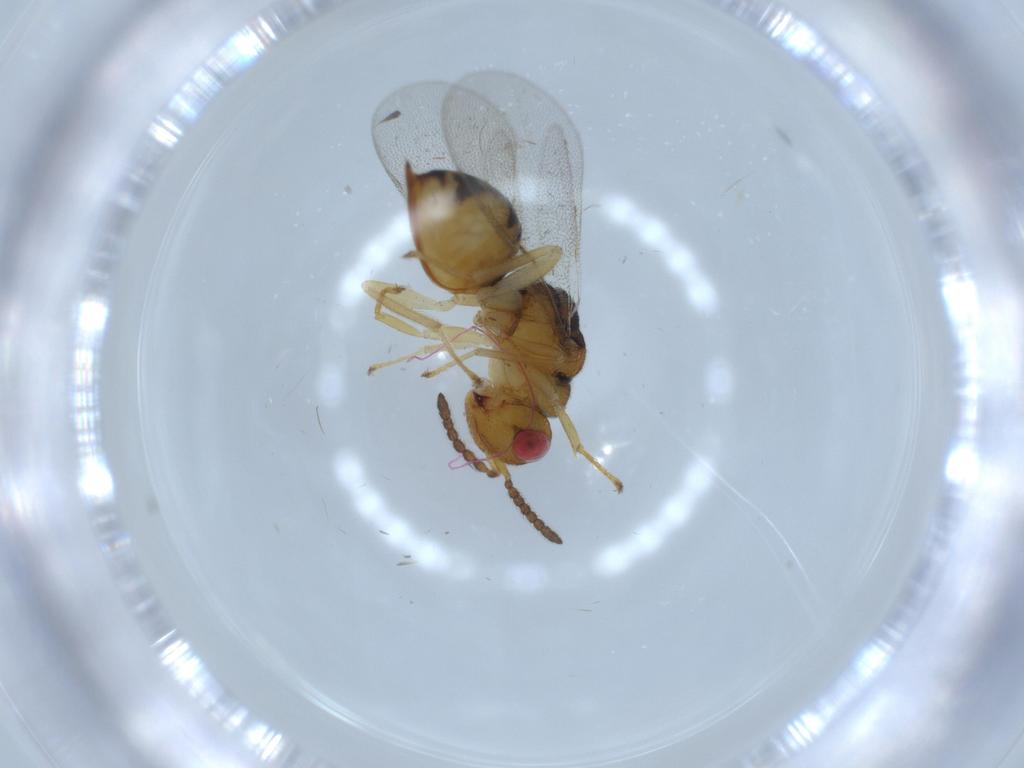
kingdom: Animalia
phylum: Arthropoda
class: Insecta
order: Hymenoptera
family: Eurytomidae
